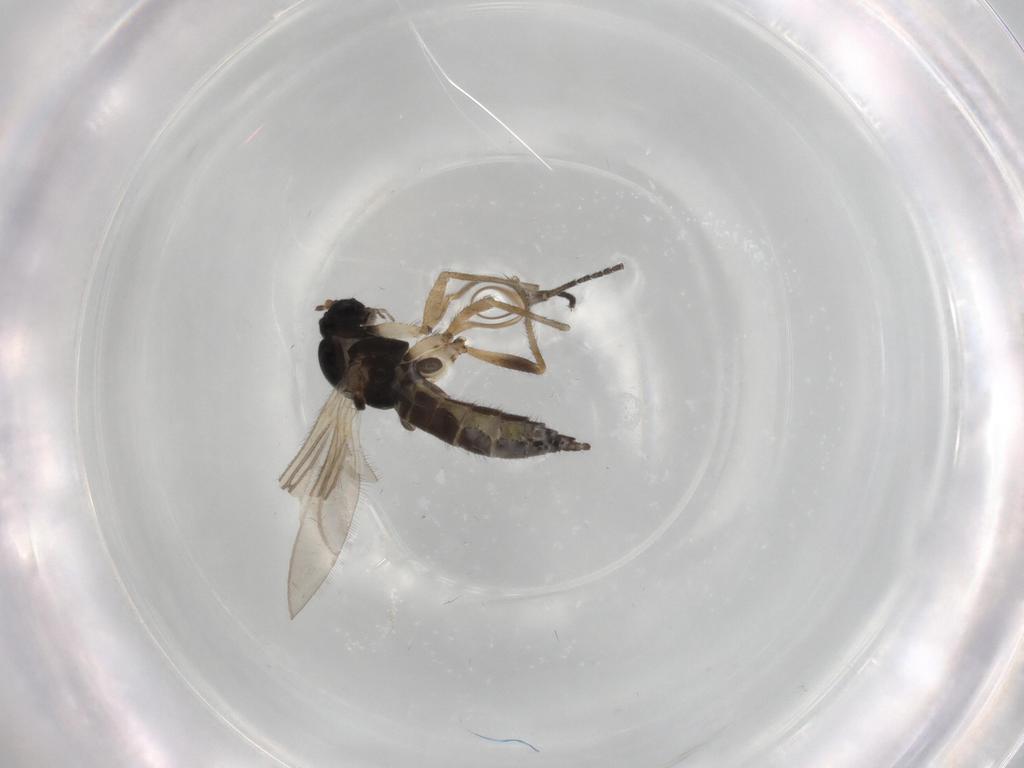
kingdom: Animalia
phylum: Arthropoda
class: Insecta
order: Diptera
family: Sciaridae
